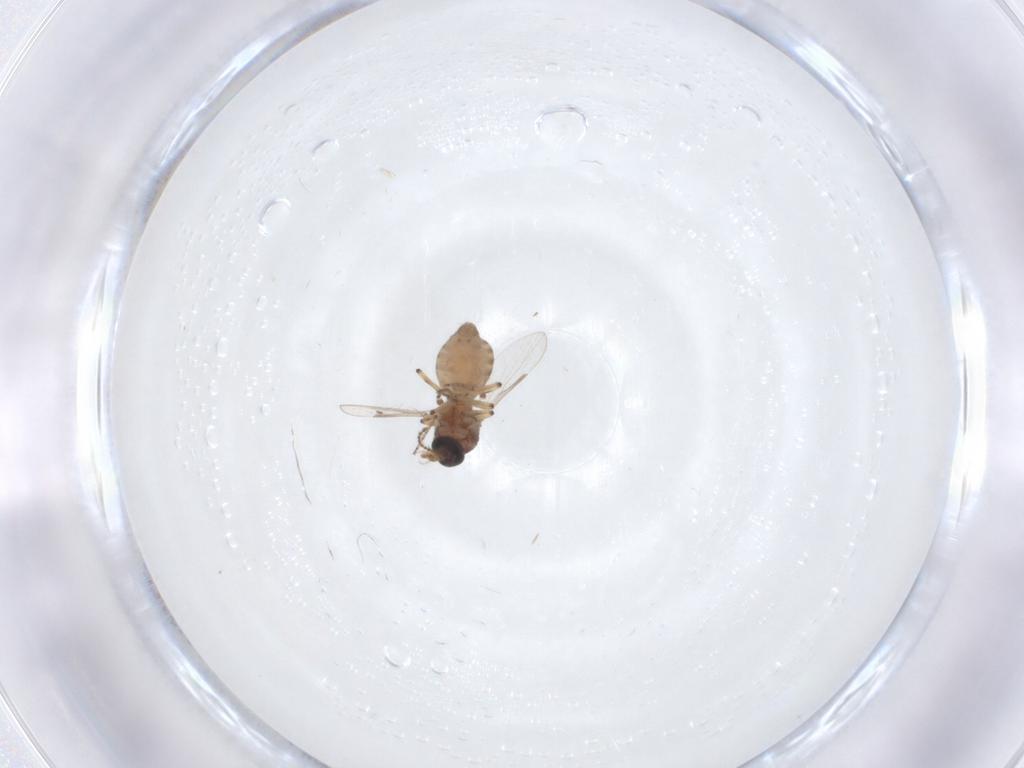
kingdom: Animalia
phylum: Arthropoda
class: Insecta
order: Diptera
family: Ceratopogonidae
